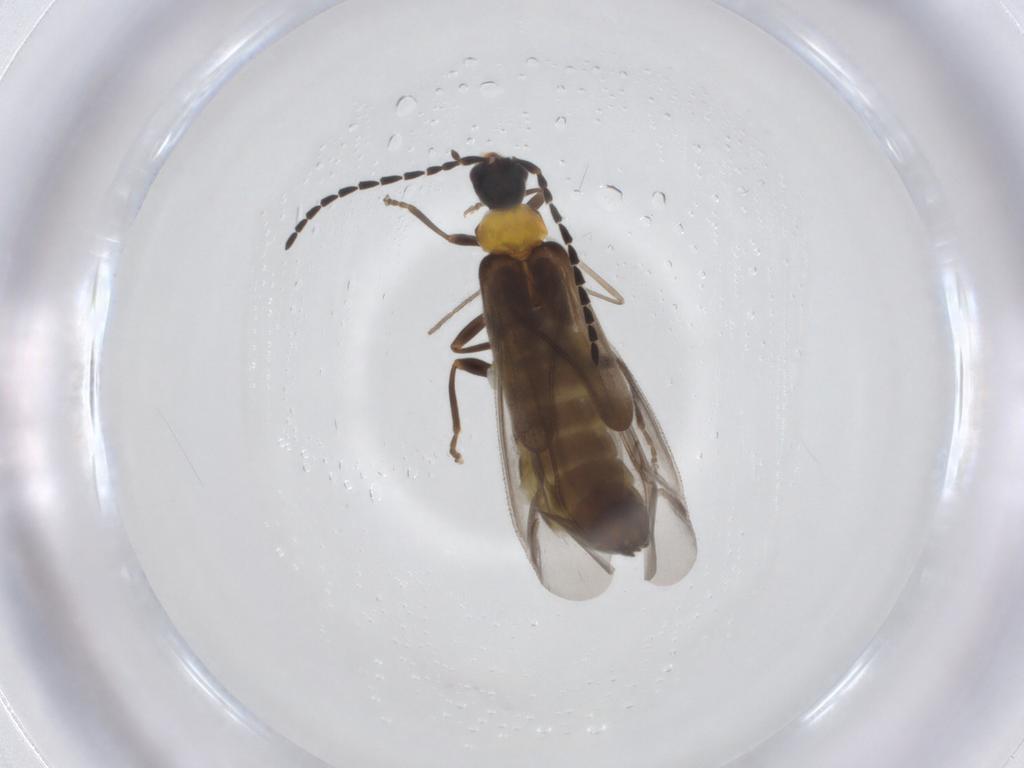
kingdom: Animalia
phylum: Arthropoda
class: Insecta
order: Coleoptera
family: Cantharidae
